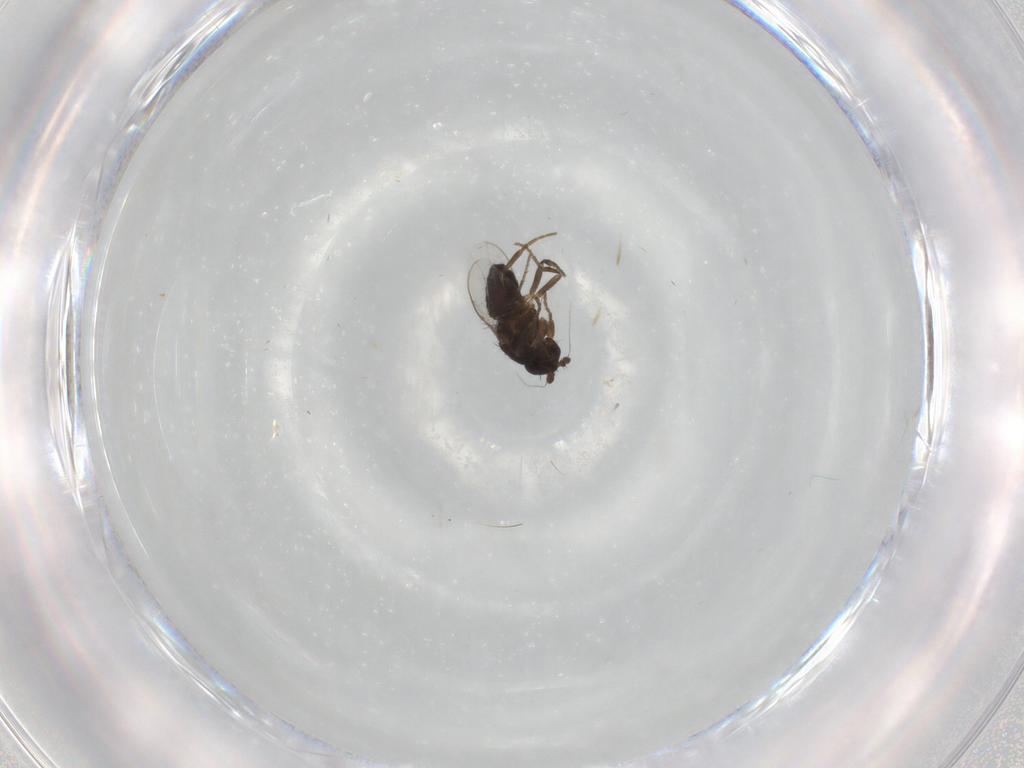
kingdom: Animalia
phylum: Arthropoda
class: Insecta
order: Diptera
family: Sphaeroceridae
